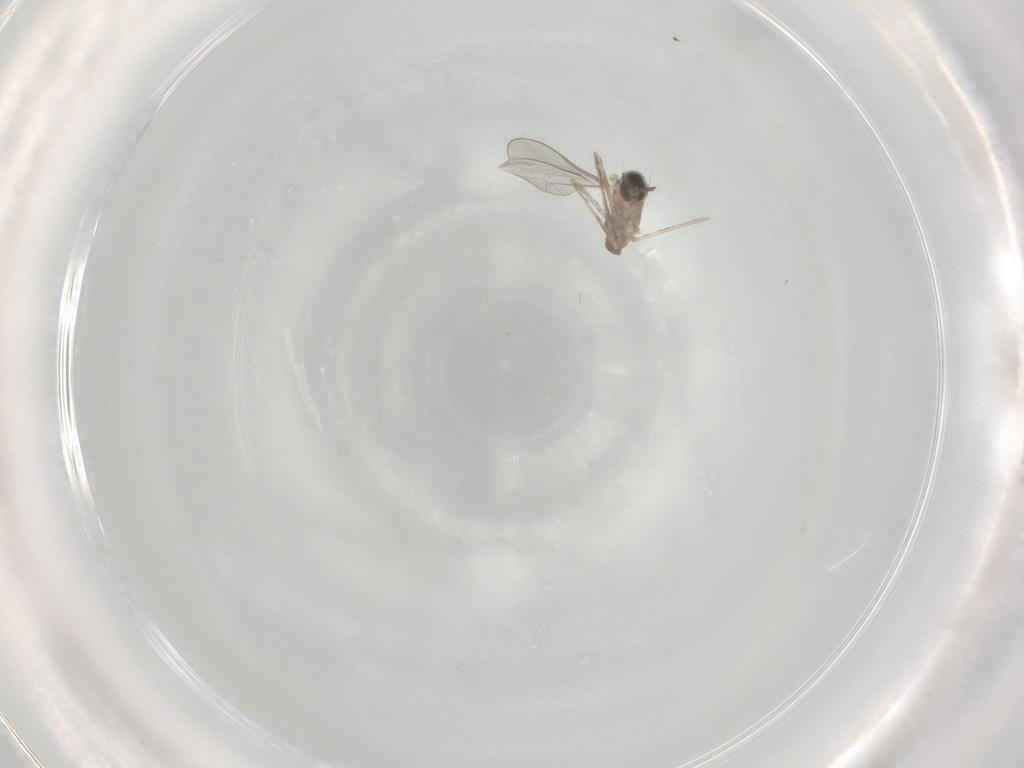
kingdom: Animalia
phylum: Arthropoda
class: Insecta
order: Diptera
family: Cecidomyiidae
